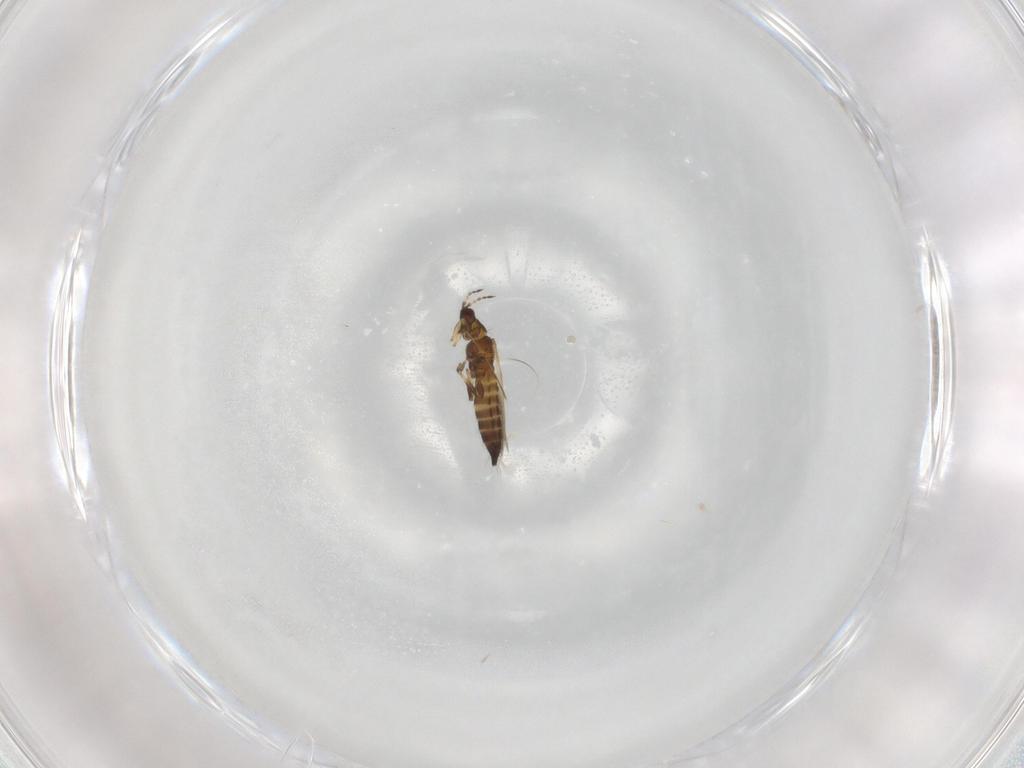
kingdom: Animalia
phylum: Arthropoda
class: Insecta
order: Thysanoptera
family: Thripidae
